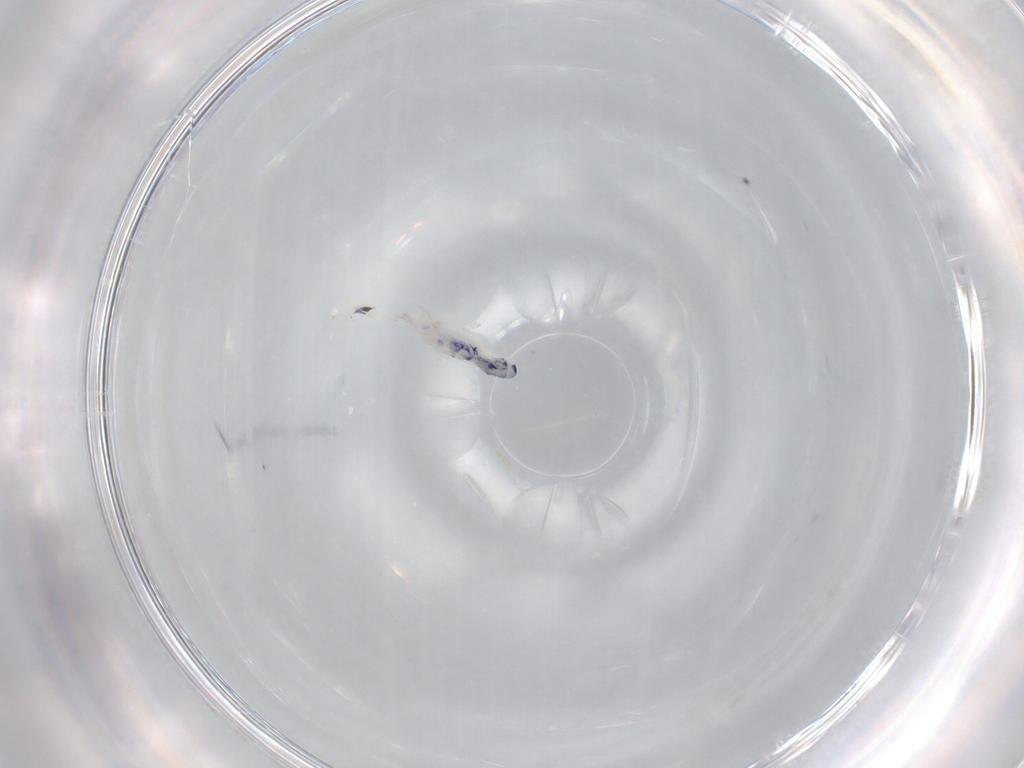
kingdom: Animalia
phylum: Arthropoda
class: Collembola
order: Entomobryomorpha
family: Entomobryidae
